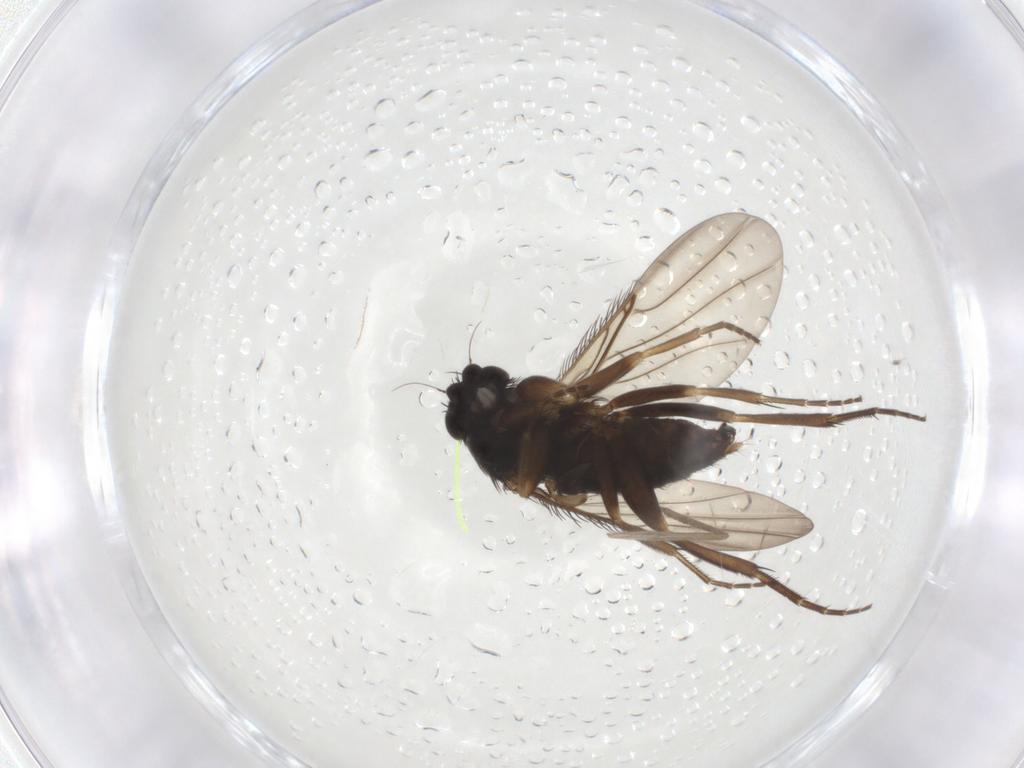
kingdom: Animalia
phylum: Arthropoda
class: Insecta
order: Diptera
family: Phoridae
